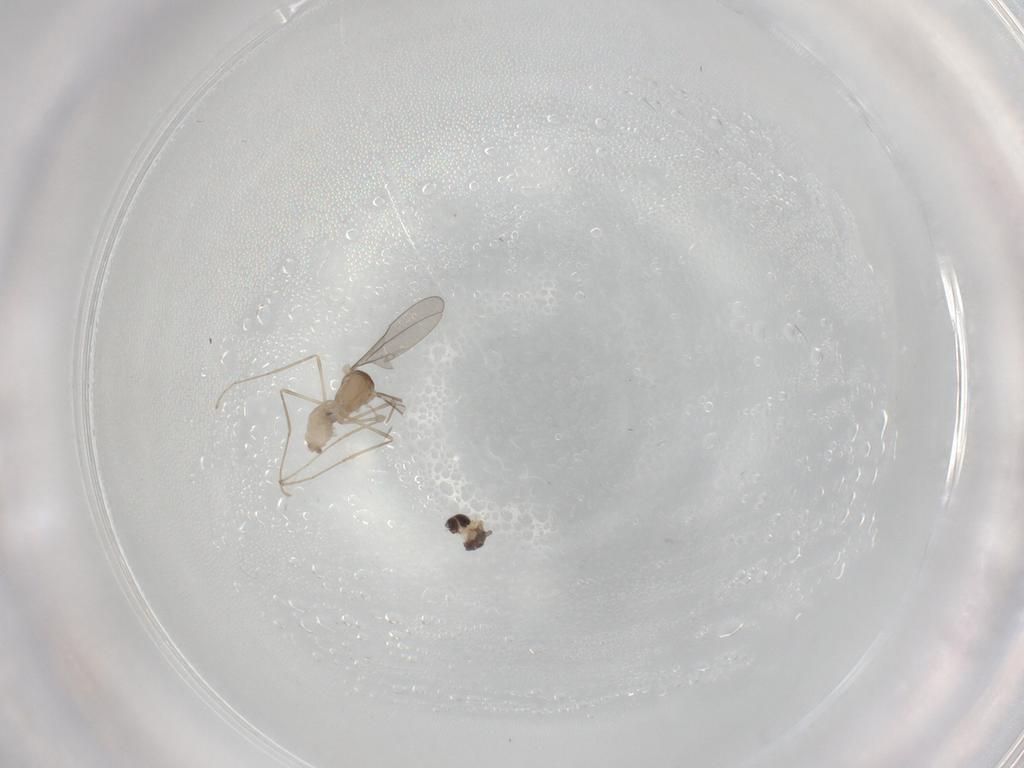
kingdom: Animalia
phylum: Arthropoda
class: Insecta
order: Diptera
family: Cecidomyiidae
